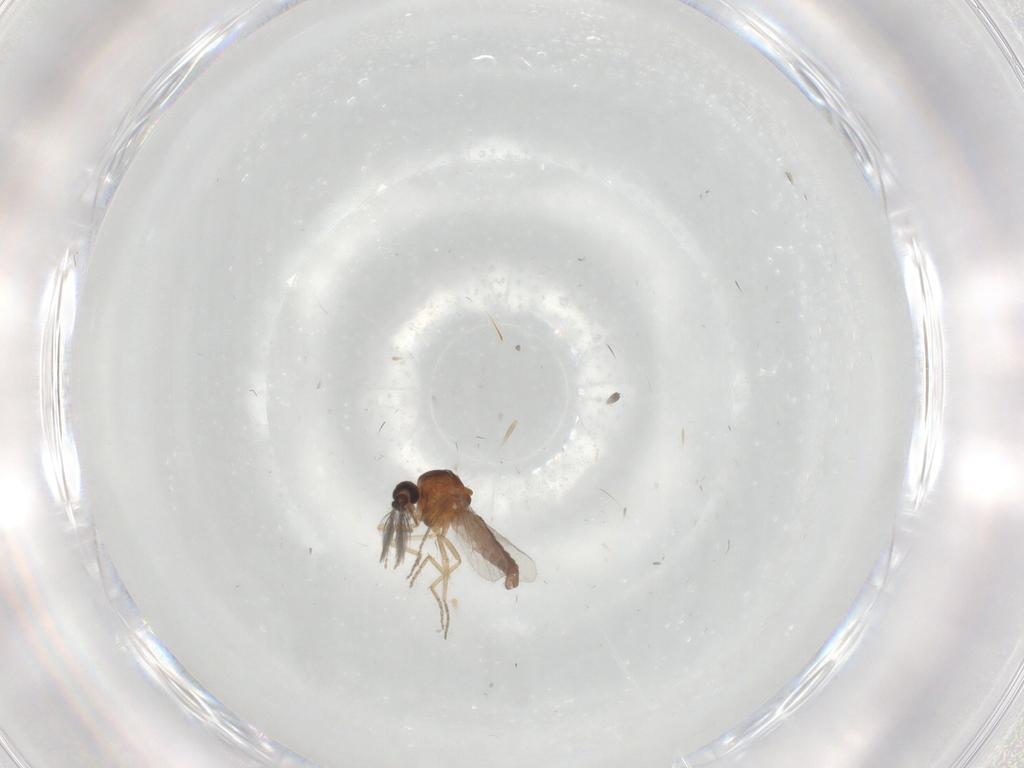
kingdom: Animalia
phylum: Arthropoda
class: Insecta
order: Diptera
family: Ceratopogonidae
